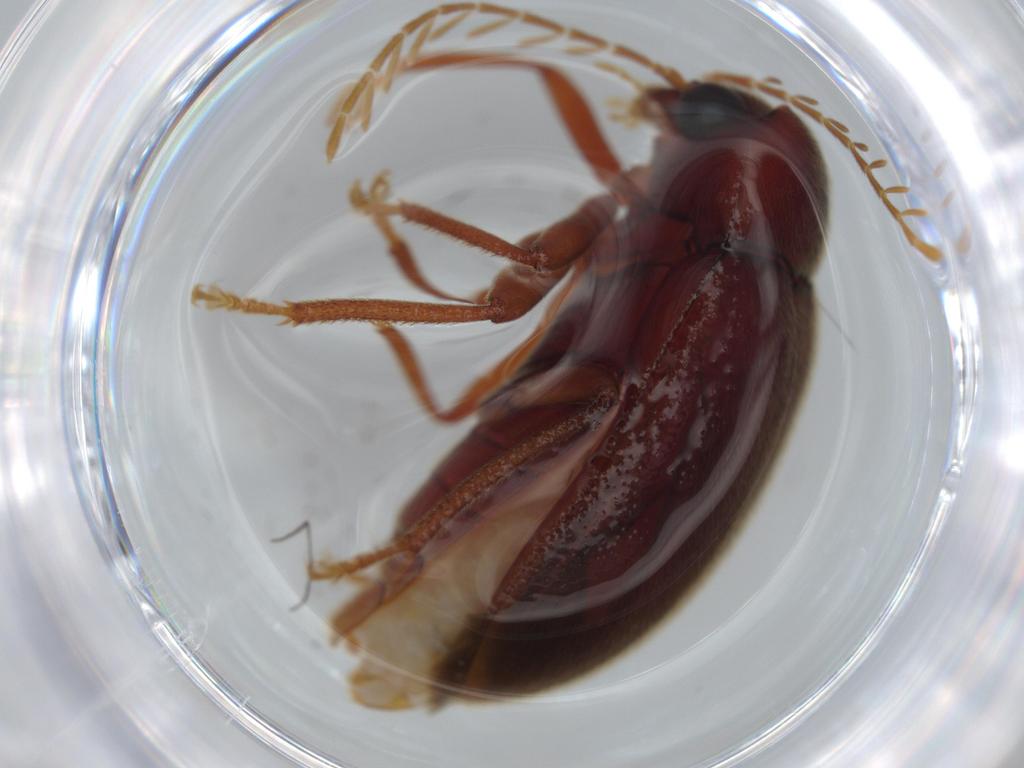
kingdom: Animalia
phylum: Arthropoda
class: Insecta
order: Coleoptera
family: Ptilodactylidae
